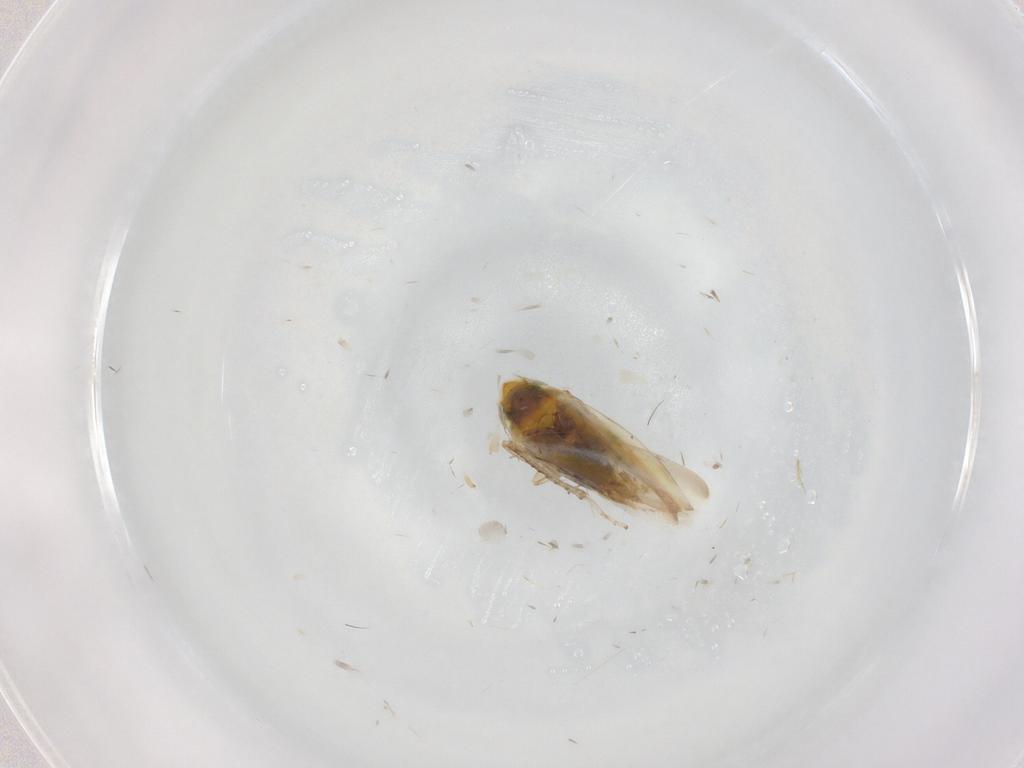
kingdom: Animalia
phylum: Arthropoda
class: Insecta
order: Hemiptera
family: Cicadellidae
